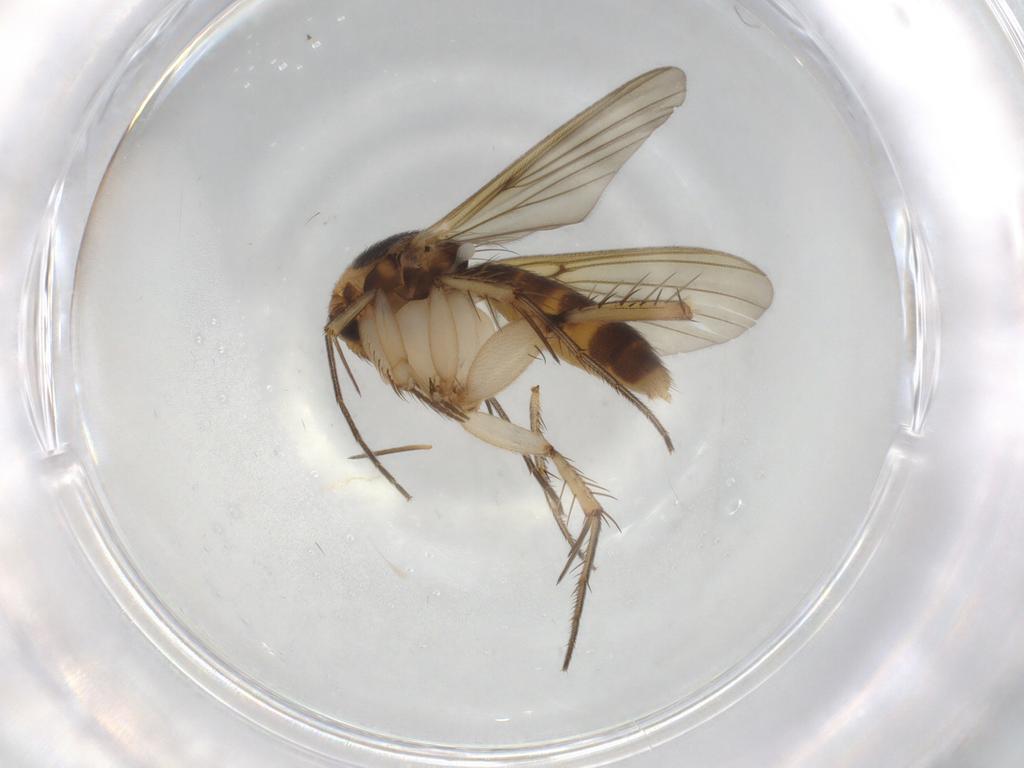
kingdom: Animalia
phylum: Arthropoda
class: Insecta
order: Diptera
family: Mycetophilidae
